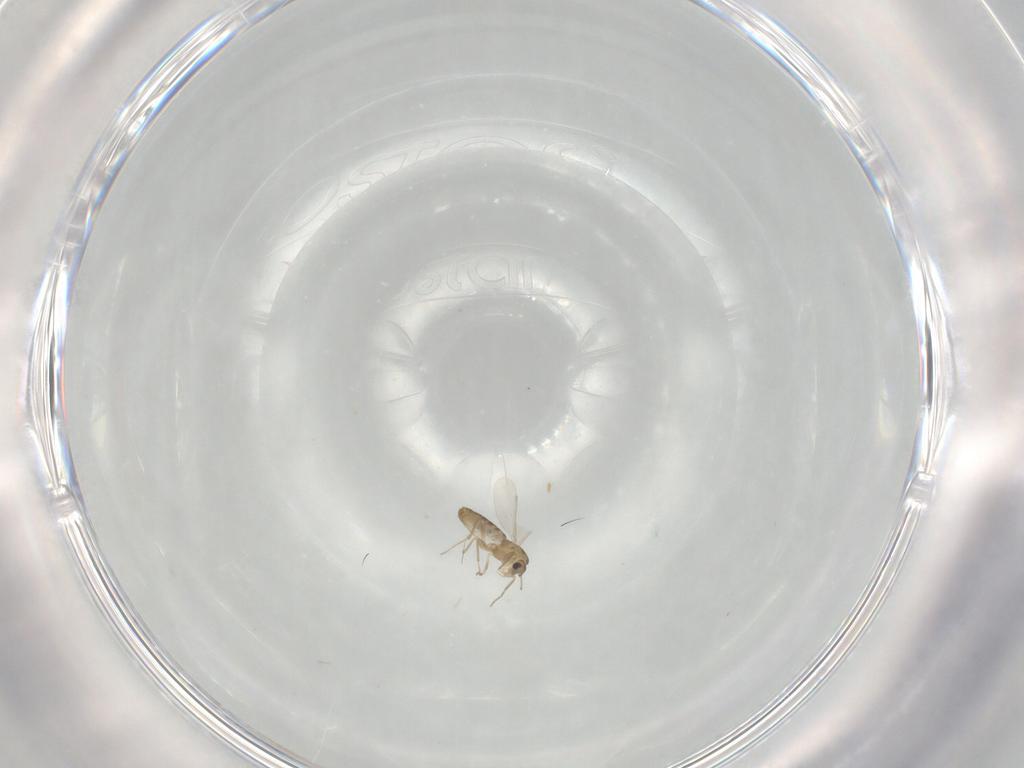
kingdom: Animalia
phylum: Arthropoda
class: Insecta
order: Diptera
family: Chironomidae
